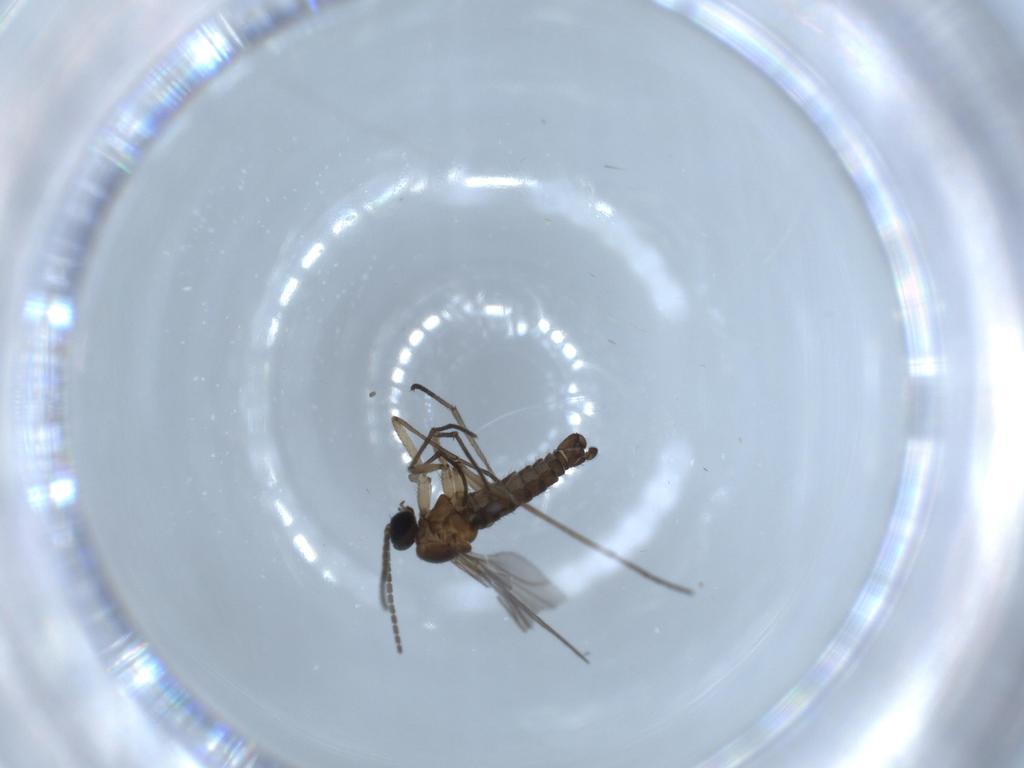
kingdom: Animalia
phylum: Arthropoda
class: Insecta
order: Diptera
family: Sciaridae
